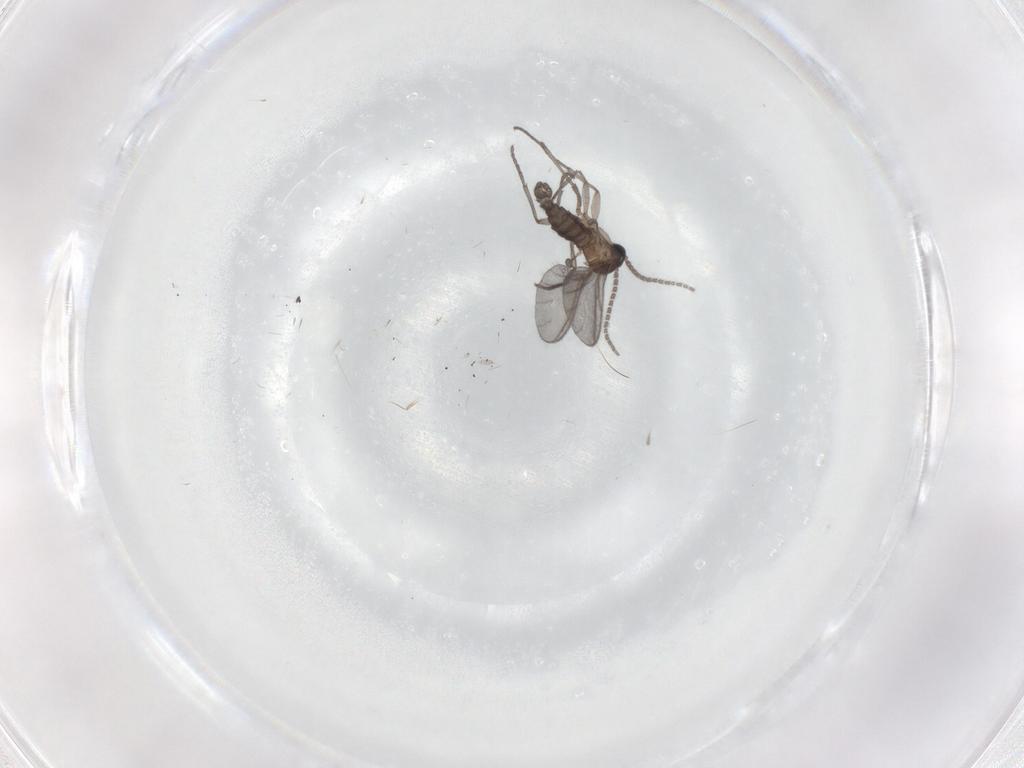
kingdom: Animalia
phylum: Arthropoda
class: Insecta
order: Diptera
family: Sciaridae
